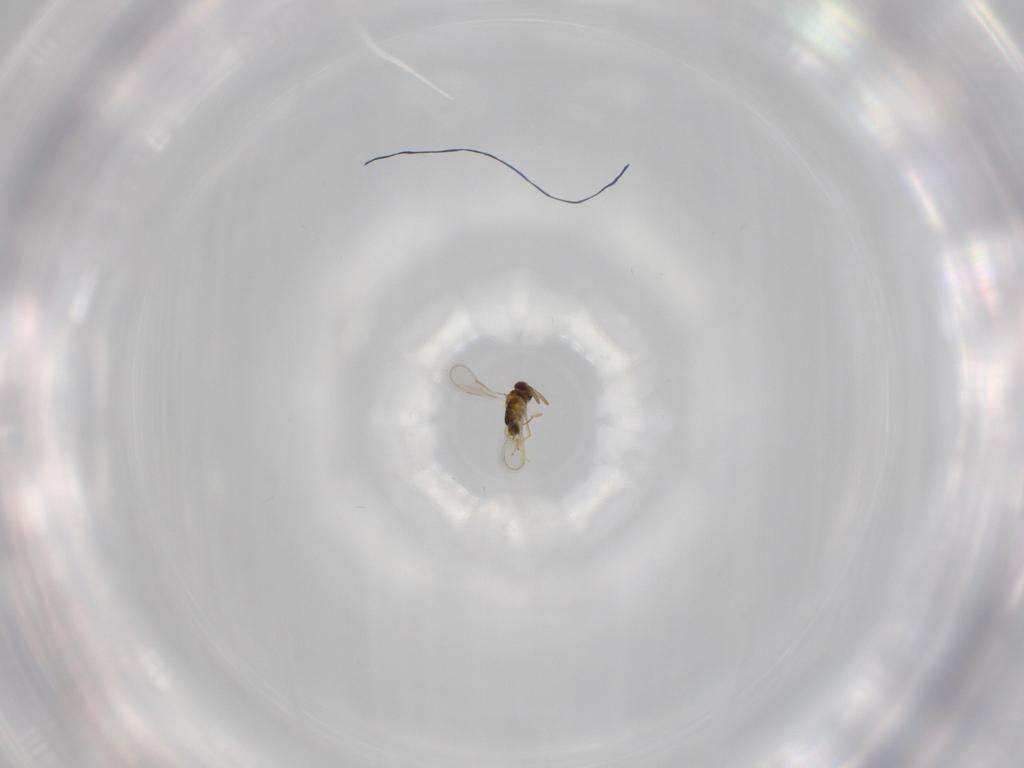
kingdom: Animalia
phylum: Arthropoda
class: Insecta
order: Hymenoptera
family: Aphelinidae
